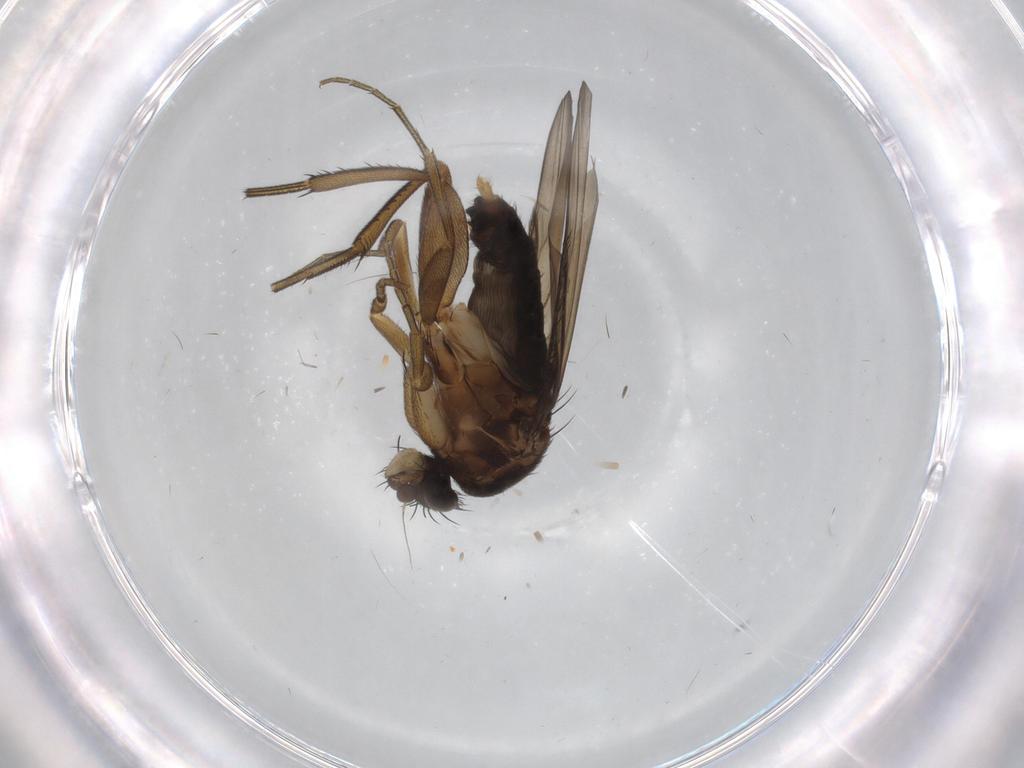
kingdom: Animalia
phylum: Arthropoda
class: Insecta
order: Diptera
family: Phoridae
